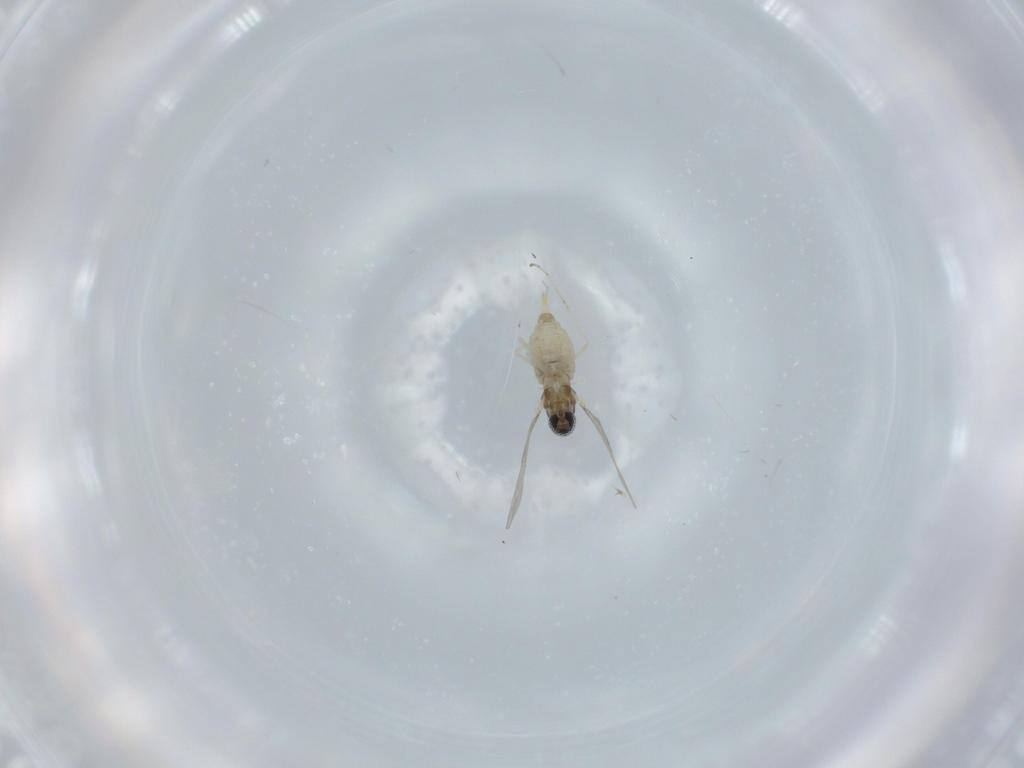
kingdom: Animalia
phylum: Arthropoda
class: Insecta
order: Diptera
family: Cecidomyiidae
